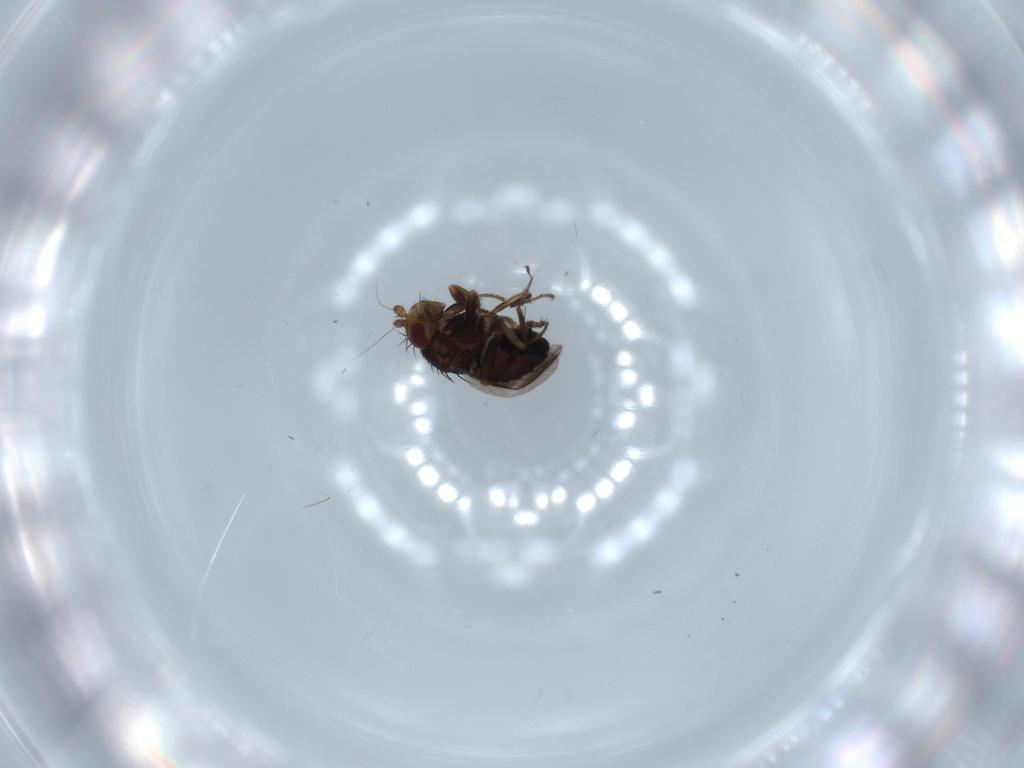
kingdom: Animalia
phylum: Arthropoda
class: Insecta
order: Diptera
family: Sphaeroceridae
